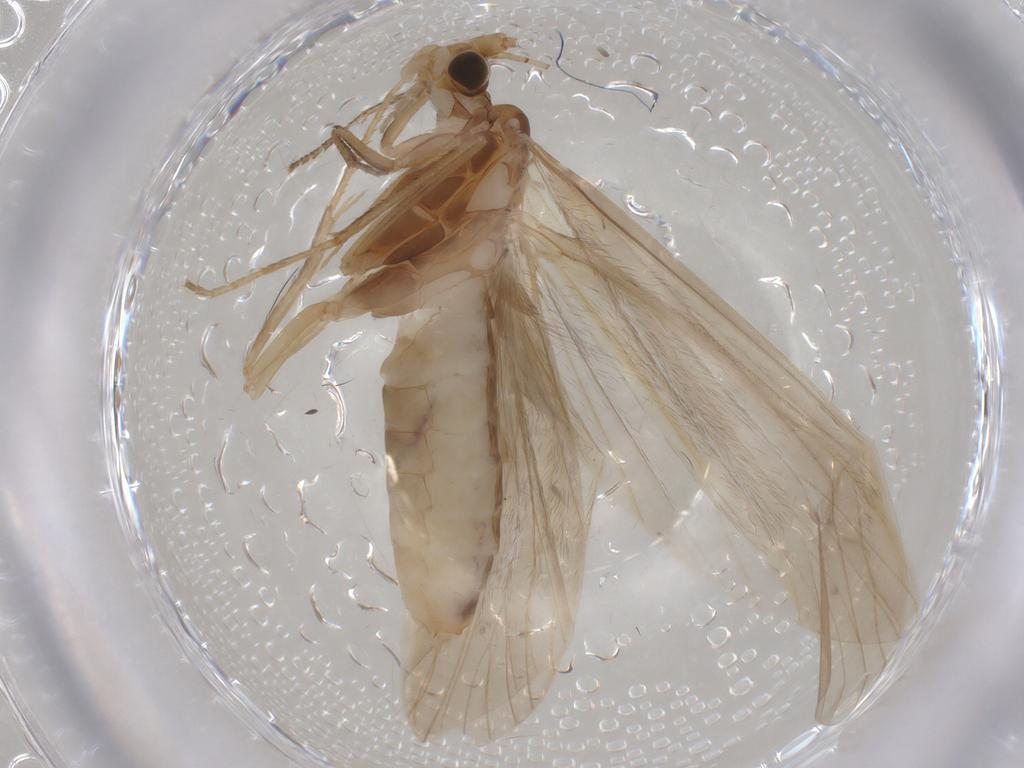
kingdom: Animalia
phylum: Arthropoda
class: Insecta
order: Trichoptera
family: Leptoceridae
